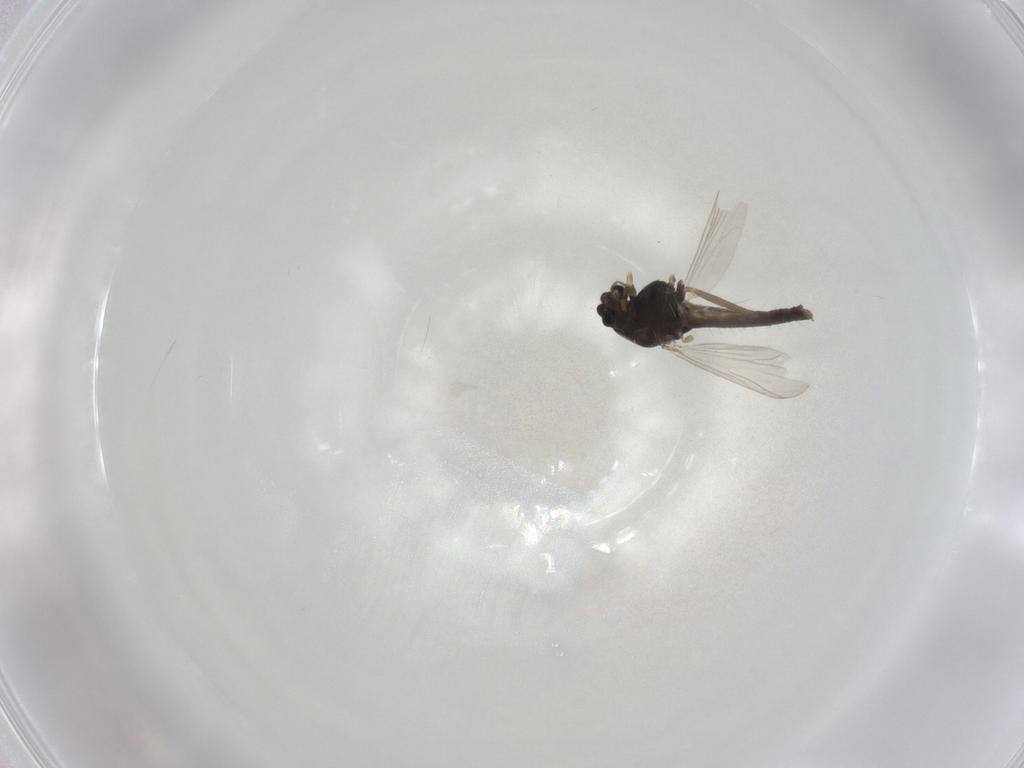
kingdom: Animalia
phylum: Arthropoda
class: Insecta
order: Diptera
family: Chironomidae
